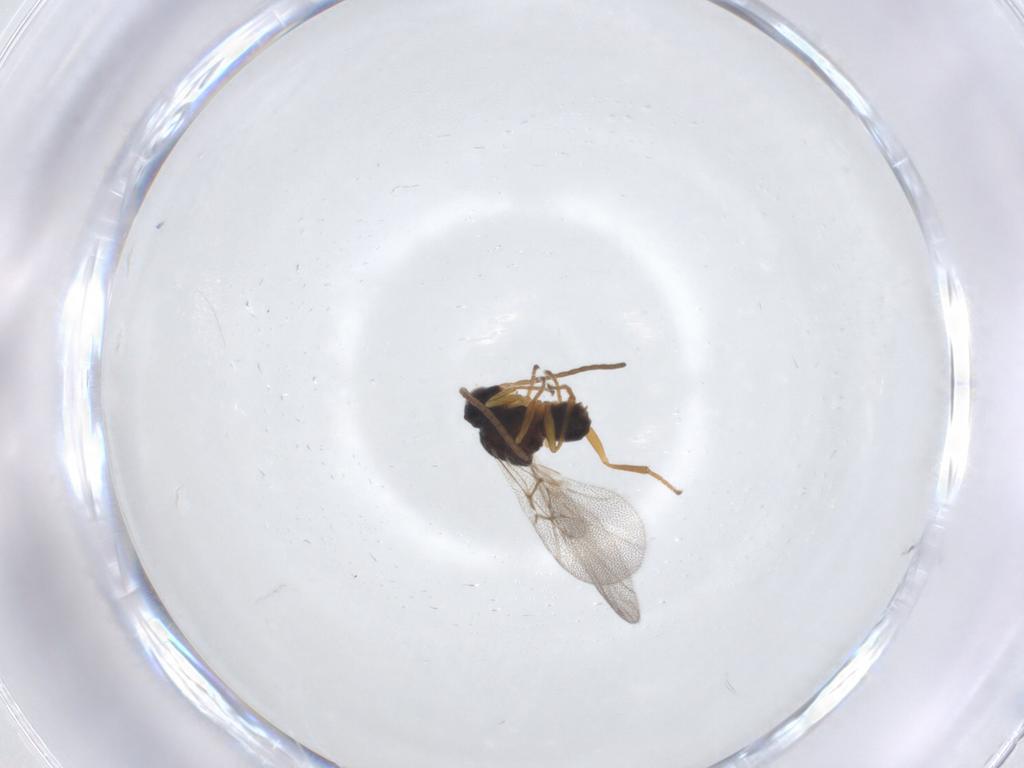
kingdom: Animalia
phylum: Arthropoda
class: Insecta
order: Hymenoptera
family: Cynipidae
